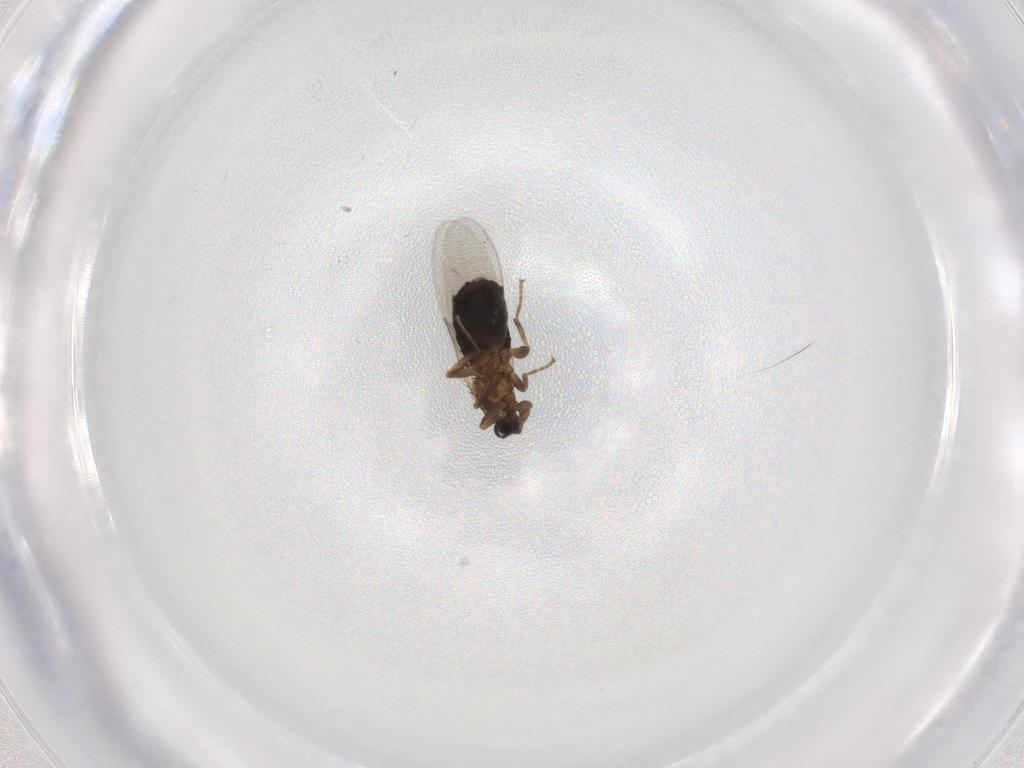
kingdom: Animalia
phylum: Arthropoda
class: Insecta
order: Diptera
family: Scatopsidae
